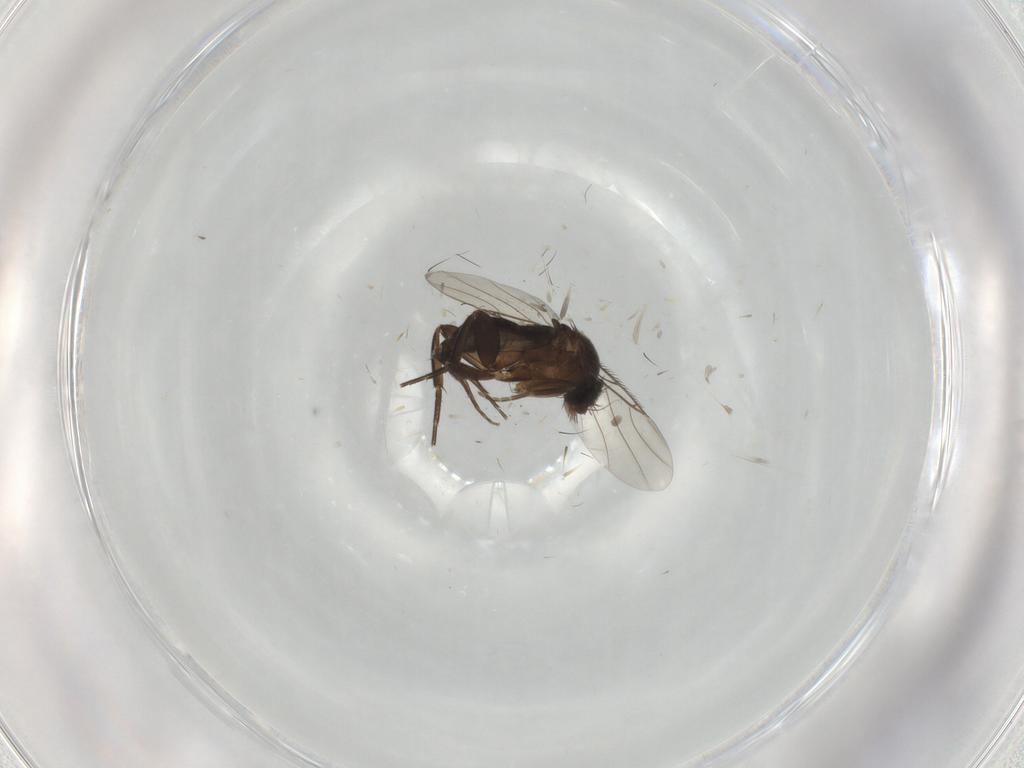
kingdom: Animalia
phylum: Arthropoda
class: Insecta
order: Diptera
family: Phoridae
